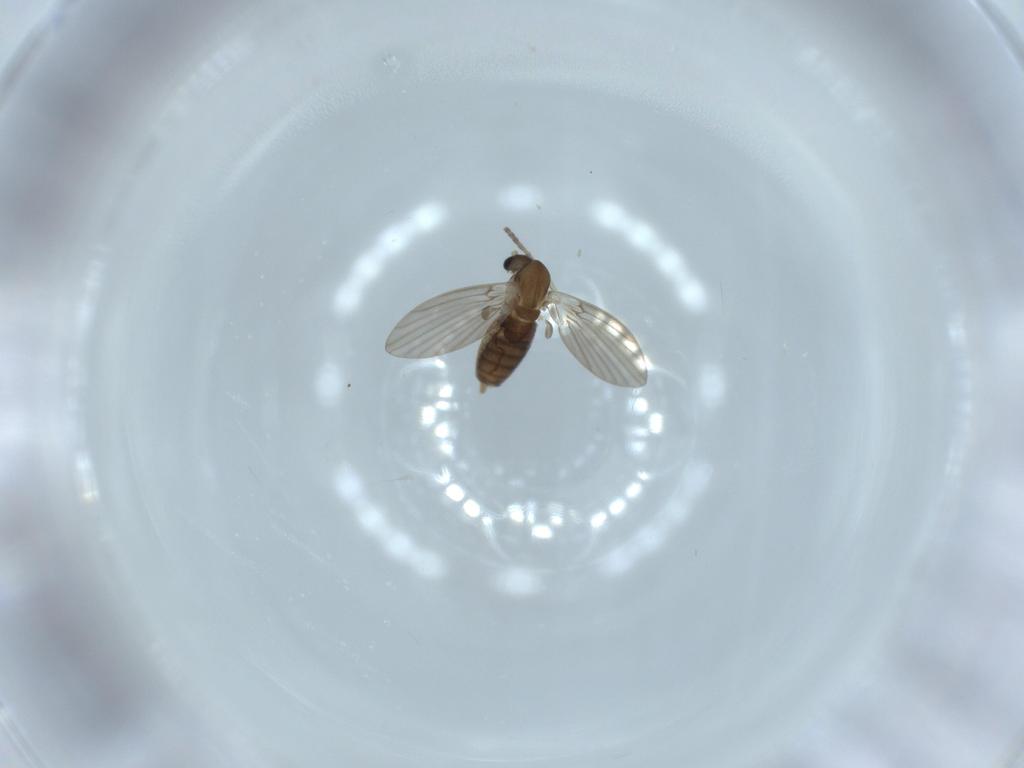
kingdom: Animalia
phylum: Arthropoda
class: Insecta
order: Diptera
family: Psychodidae
